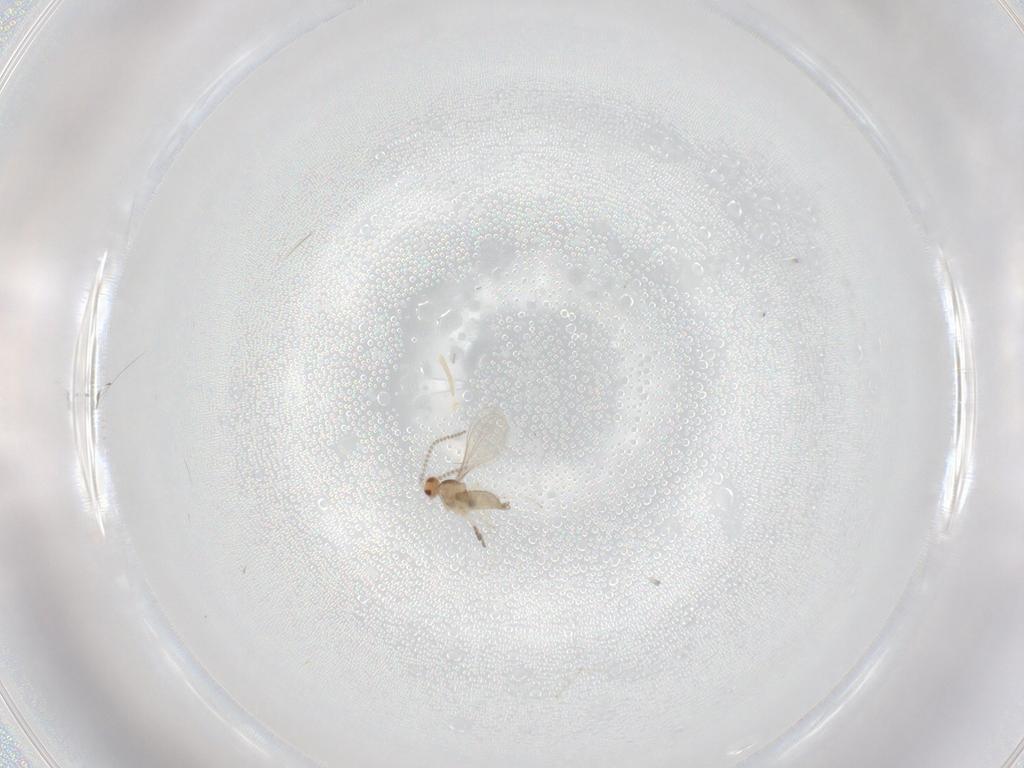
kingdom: Animalia
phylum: Arthropoda
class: Insecta
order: Diptera
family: Cecidomyiidae
